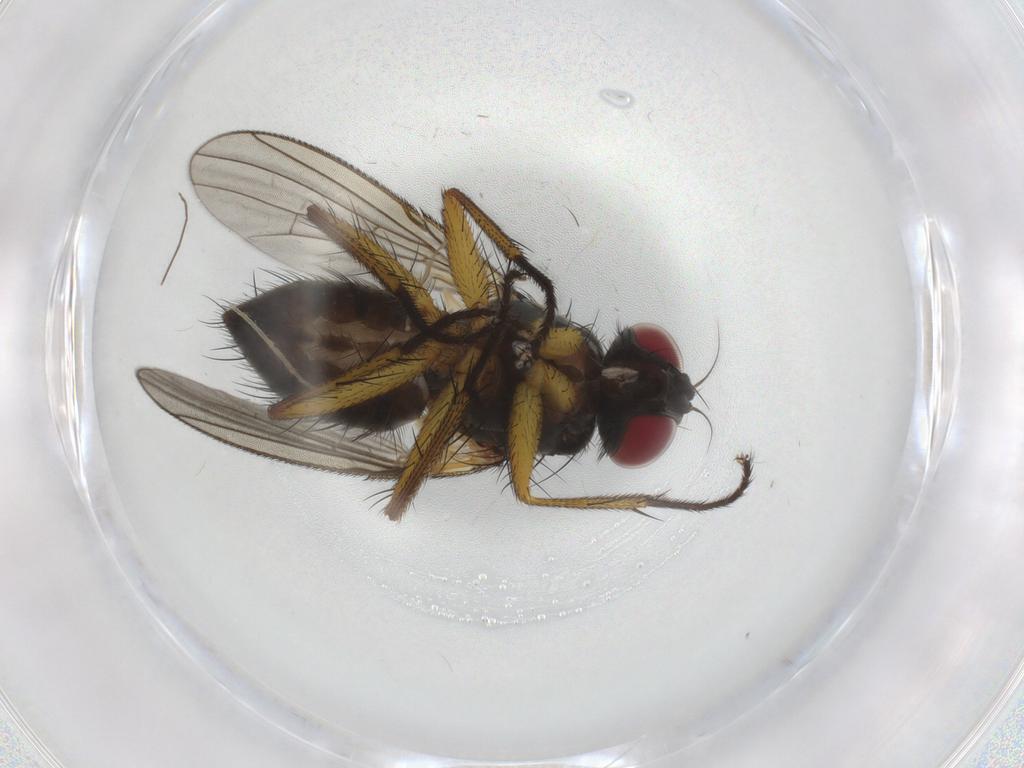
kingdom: Animalia
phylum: Arthropoda
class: Insecta
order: Diptera
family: Muscidae
